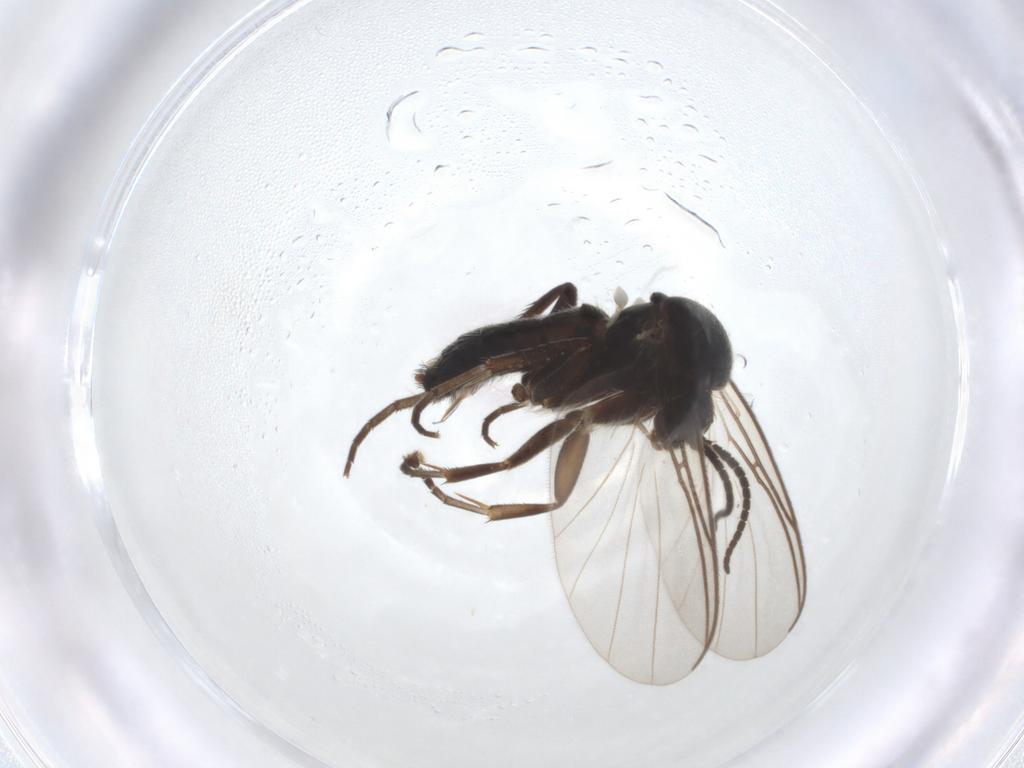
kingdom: Animalia
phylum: Arthropoda
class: Insecta
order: Diptera
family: Mycetophilidae
